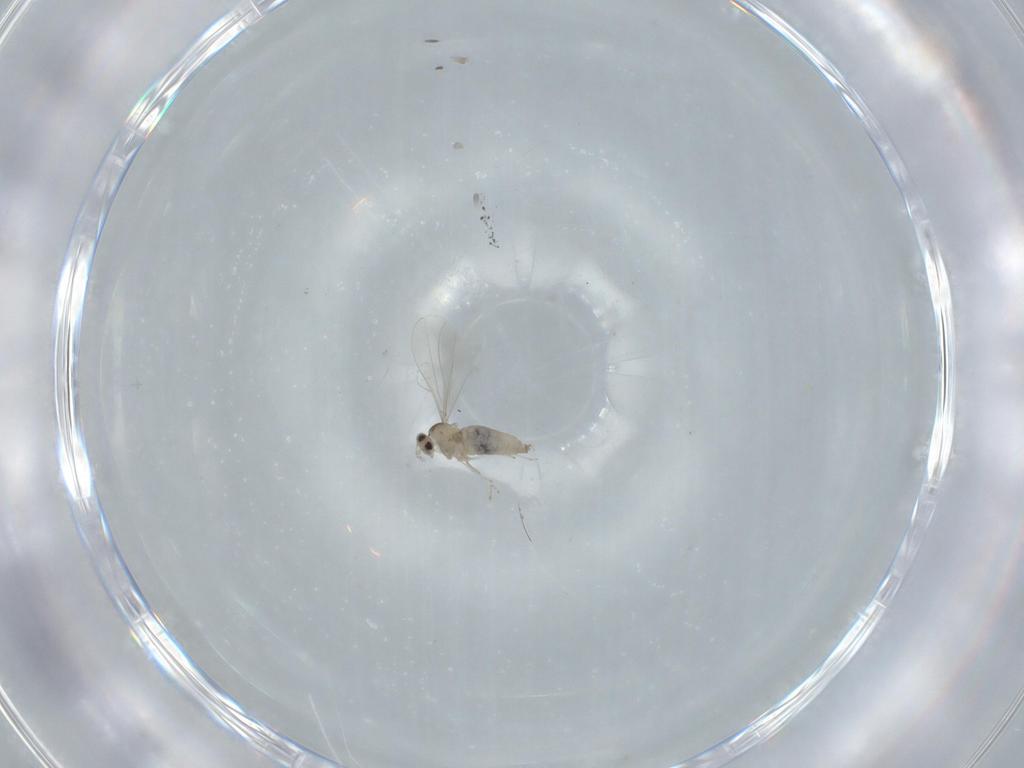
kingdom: Animalia
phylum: Arthropoda
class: Insecta
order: Diptera
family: Cecidomyiidae
